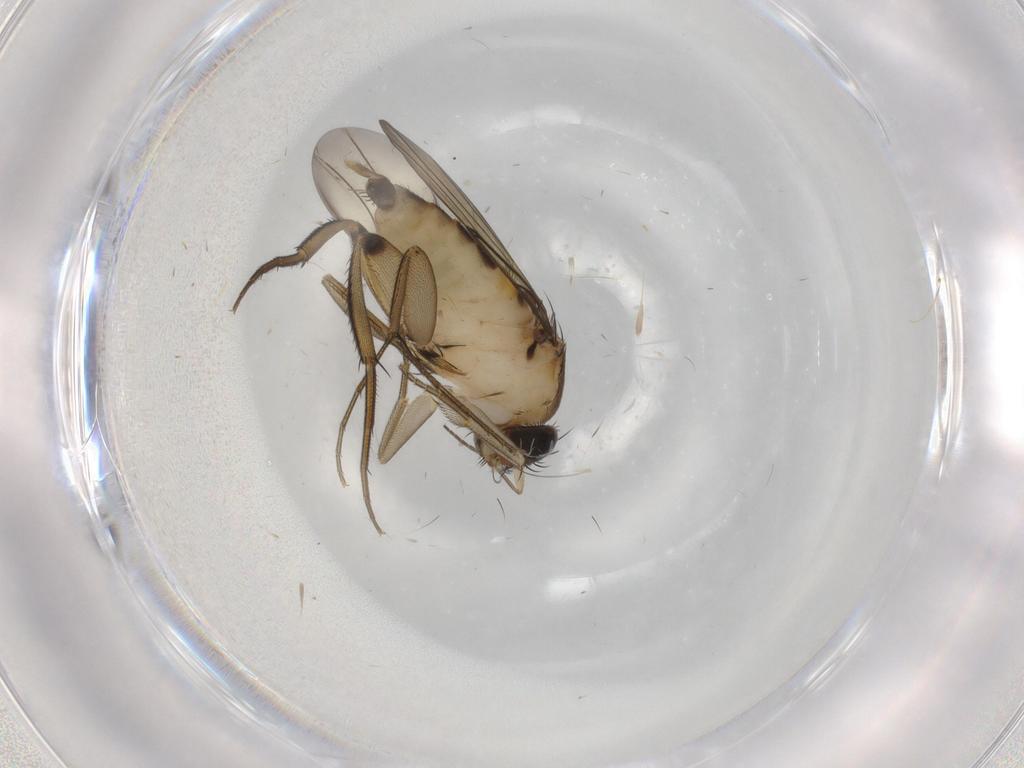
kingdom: Animalia
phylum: Arthropoda
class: Insecta
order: Diptera
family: Phoridae
